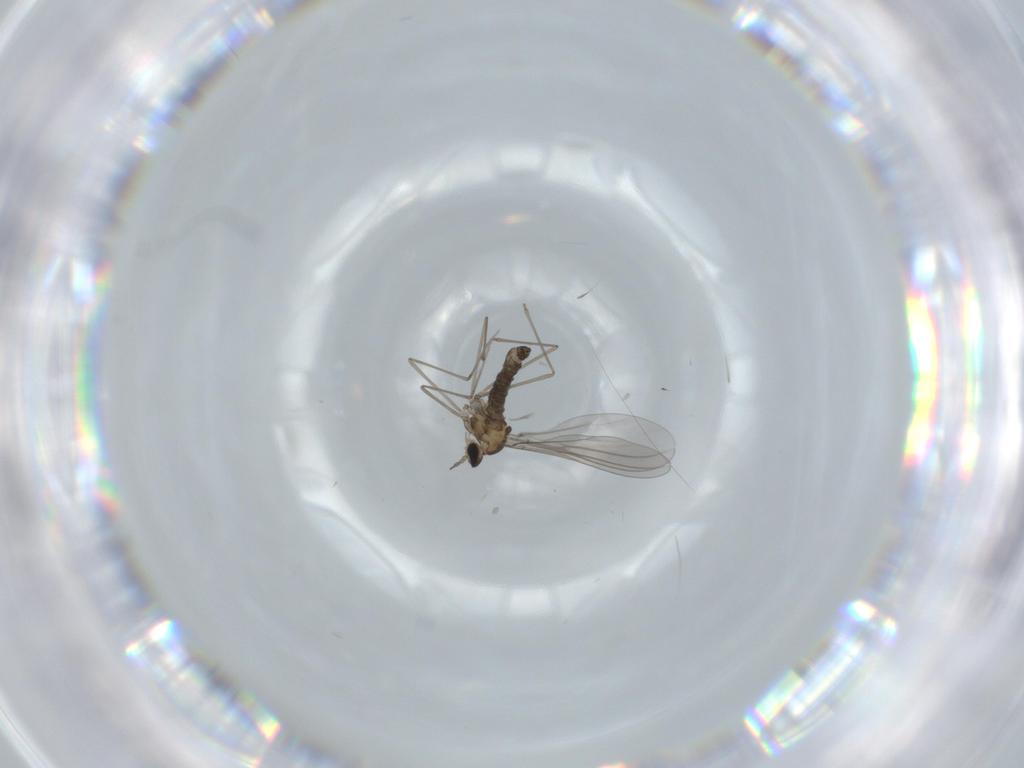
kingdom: Animalia
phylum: Arthropoda
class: Insecta
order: Diptera
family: Cecidomyiidae
